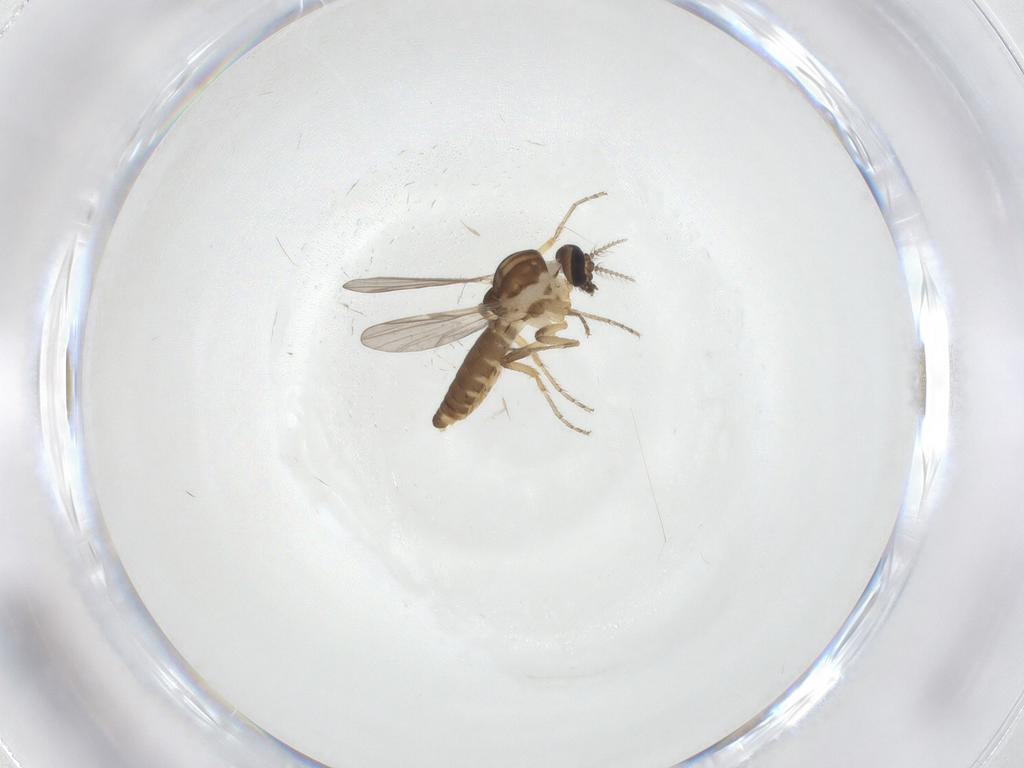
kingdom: Animalia
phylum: Arthropoda
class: Insecta
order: Diptera
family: Ceratopogonidae
